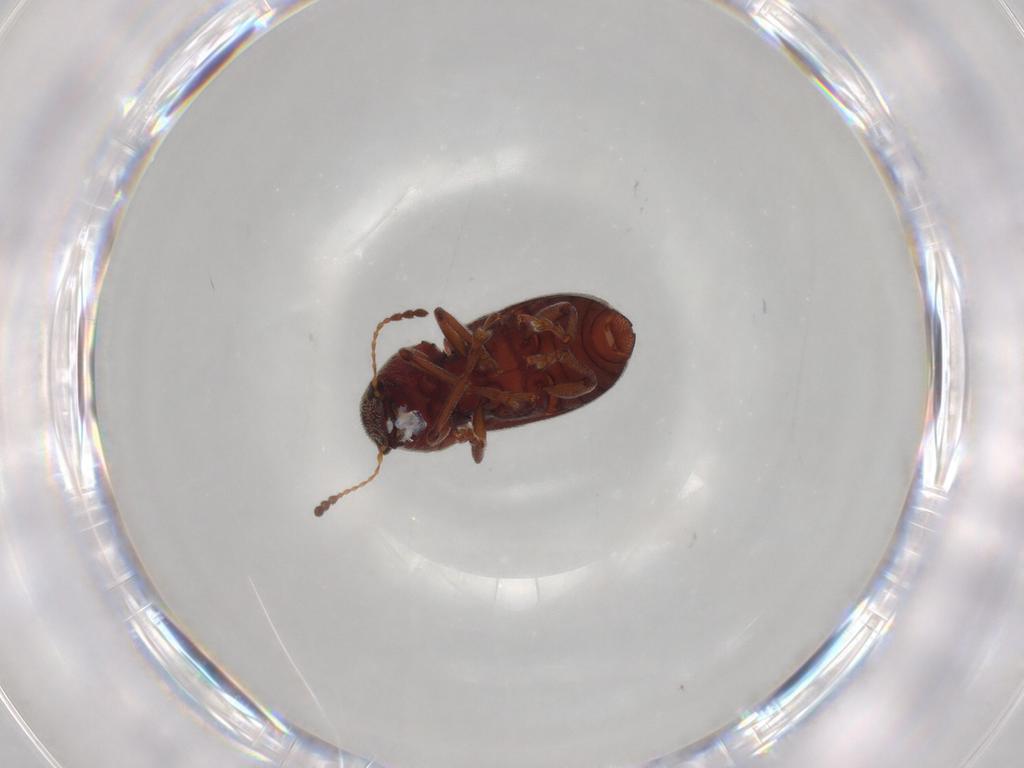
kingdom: Animalia
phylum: Arthropoda
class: Insecta
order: Coleoptera
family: Anthribidae
